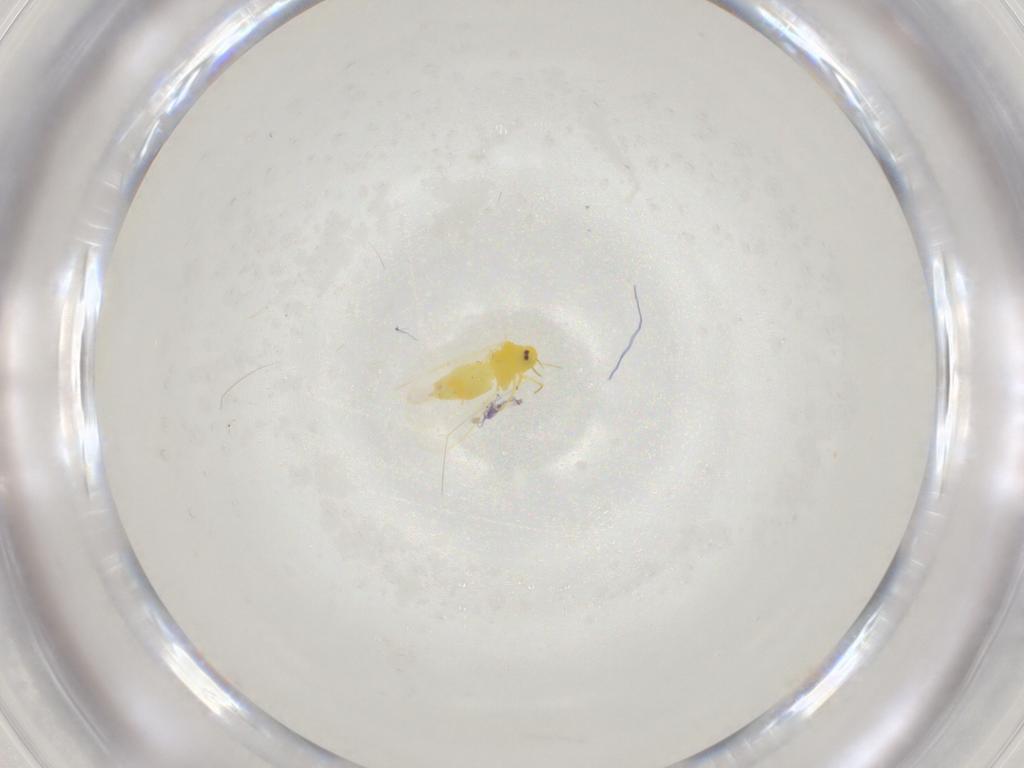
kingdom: Animalia
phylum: Arthropoda
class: Insecta
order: Hemiptera
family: Aleyrodidae
